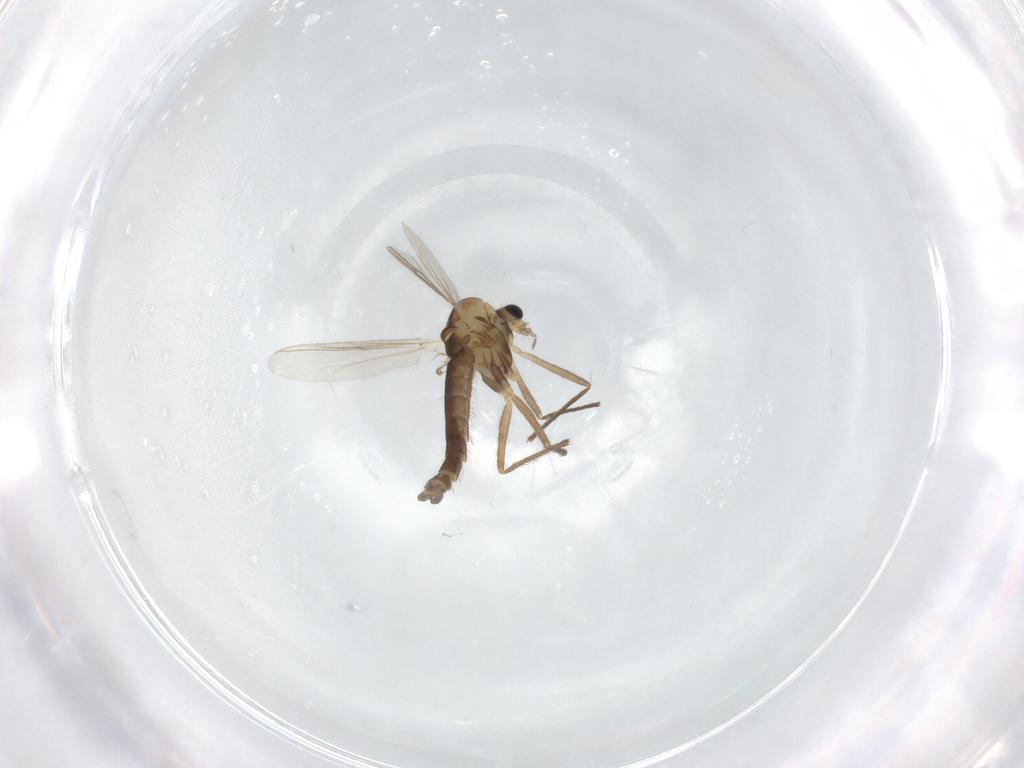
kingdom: Animalia
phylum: Arthropoda
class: Insecta
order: Diptera
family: Chironomidae
